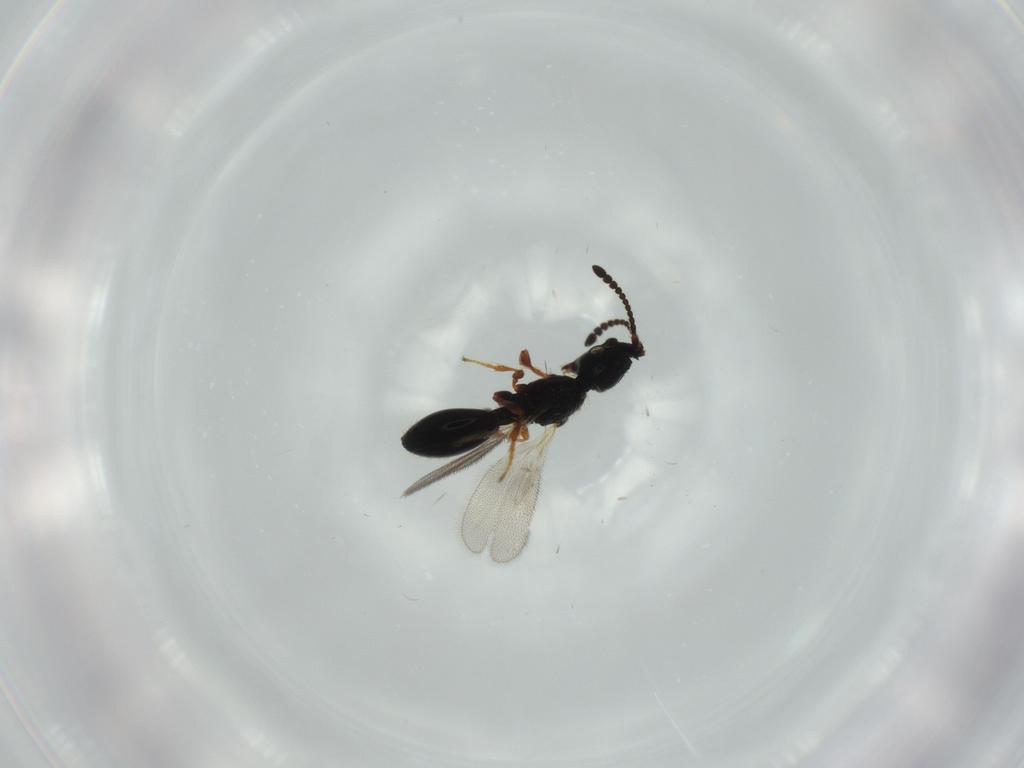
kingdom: Animalia
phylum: Arthropoda
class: Insecta
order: Hymenoptera
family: Diapriidae
